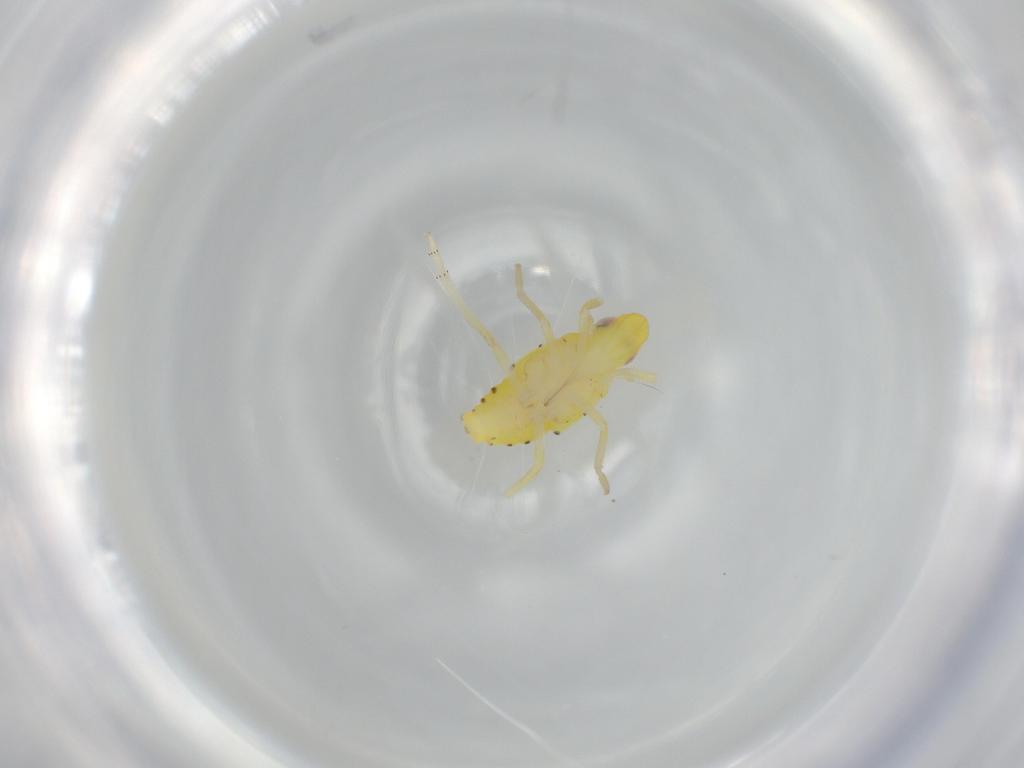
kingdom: Animalia
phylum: Arthropoda
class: Insecta
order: Hemiptera
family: Tropiduchidae
